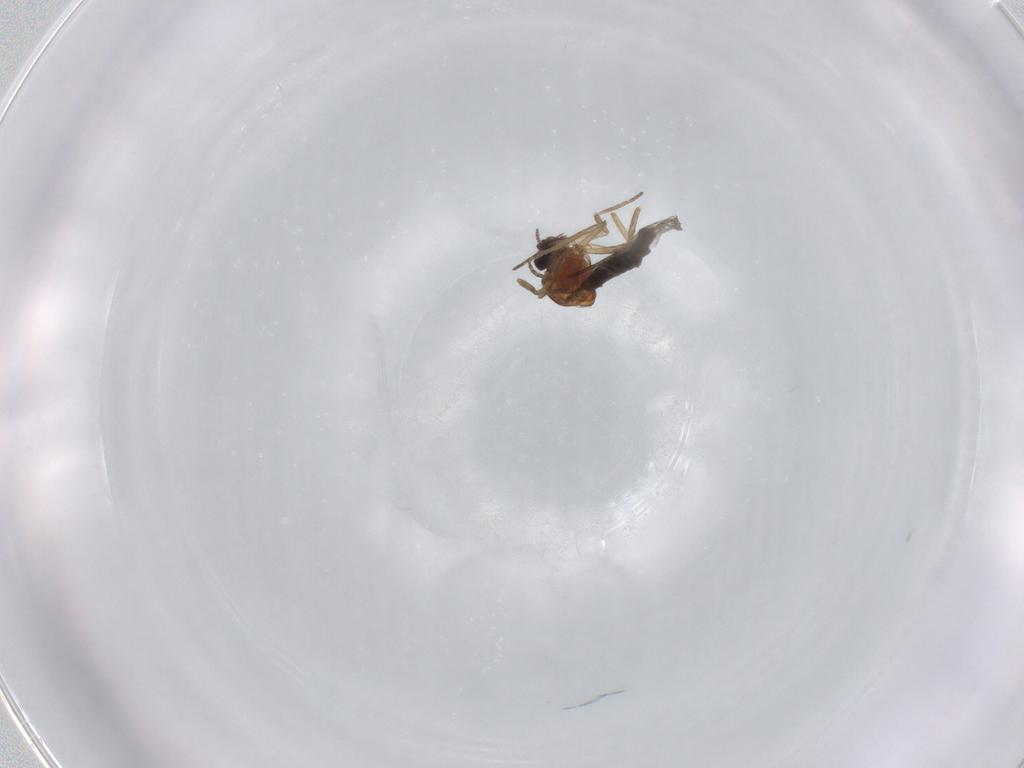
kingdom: Animalia
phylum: Arthropoda
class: Insecta
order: Diptera
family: Ceratopogonidae
